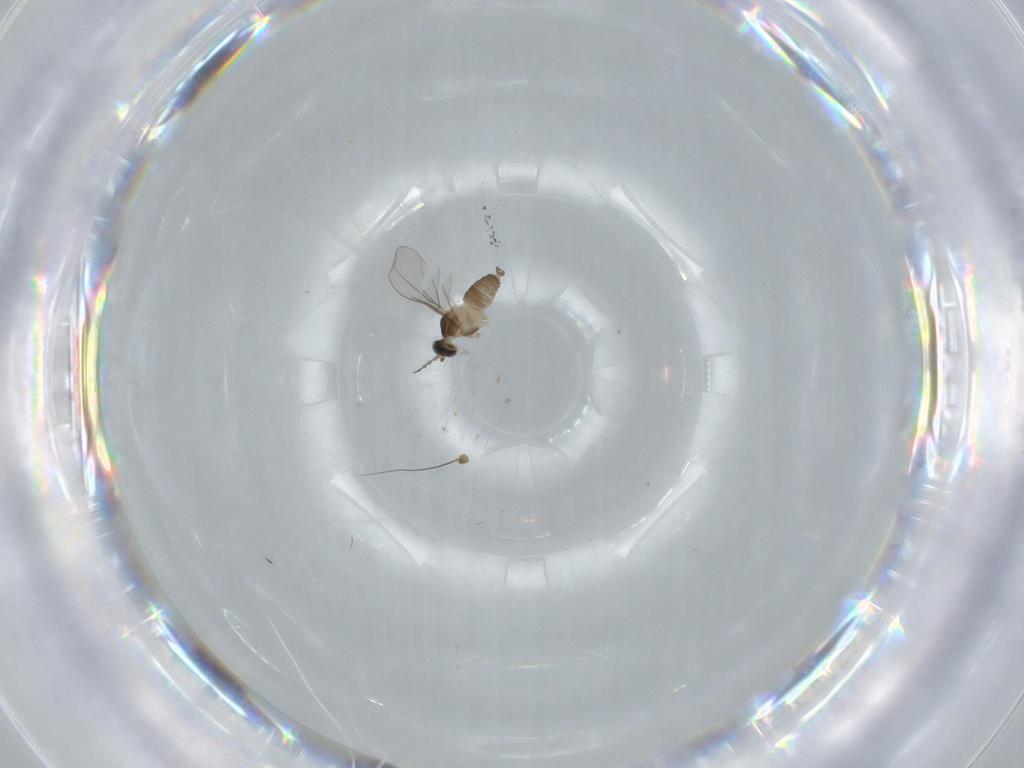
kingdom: Animalia
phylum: Arthropoda
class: Insecta
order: Diptera
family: Cecidomyiidae
